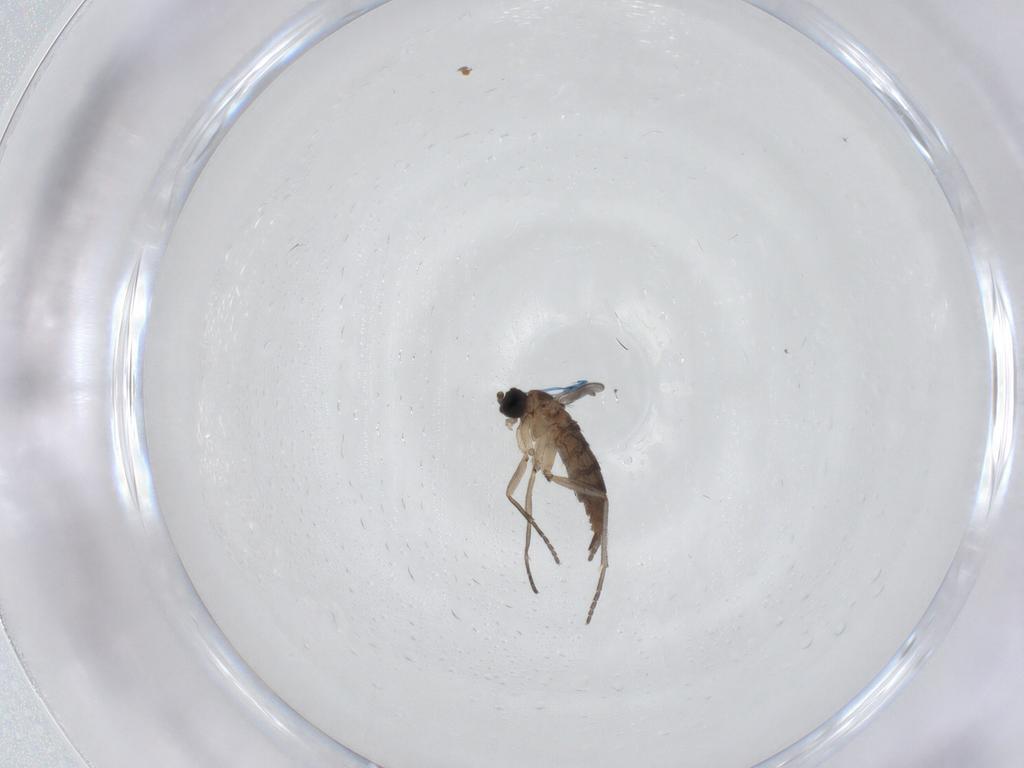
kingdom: Animalia
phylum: Arthropoda
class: Insecta
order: Diptera
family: Sciaridae
